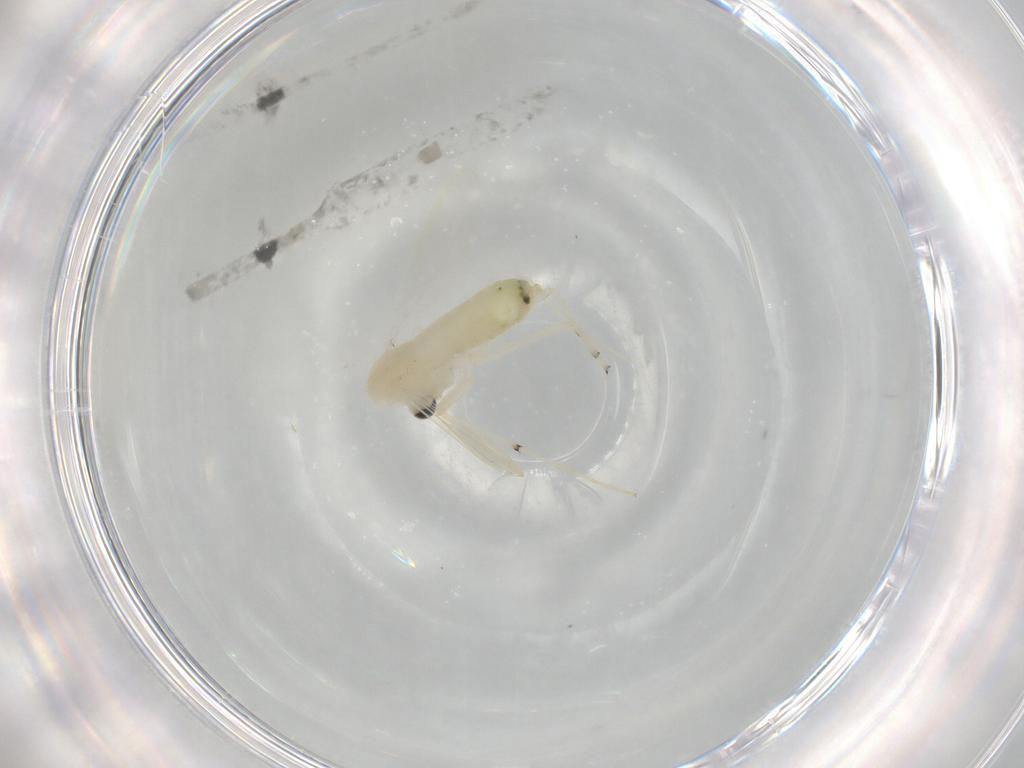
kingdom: Animalia
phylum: Arthropoda
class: Insecta
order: Diptera
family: Chironomidae
